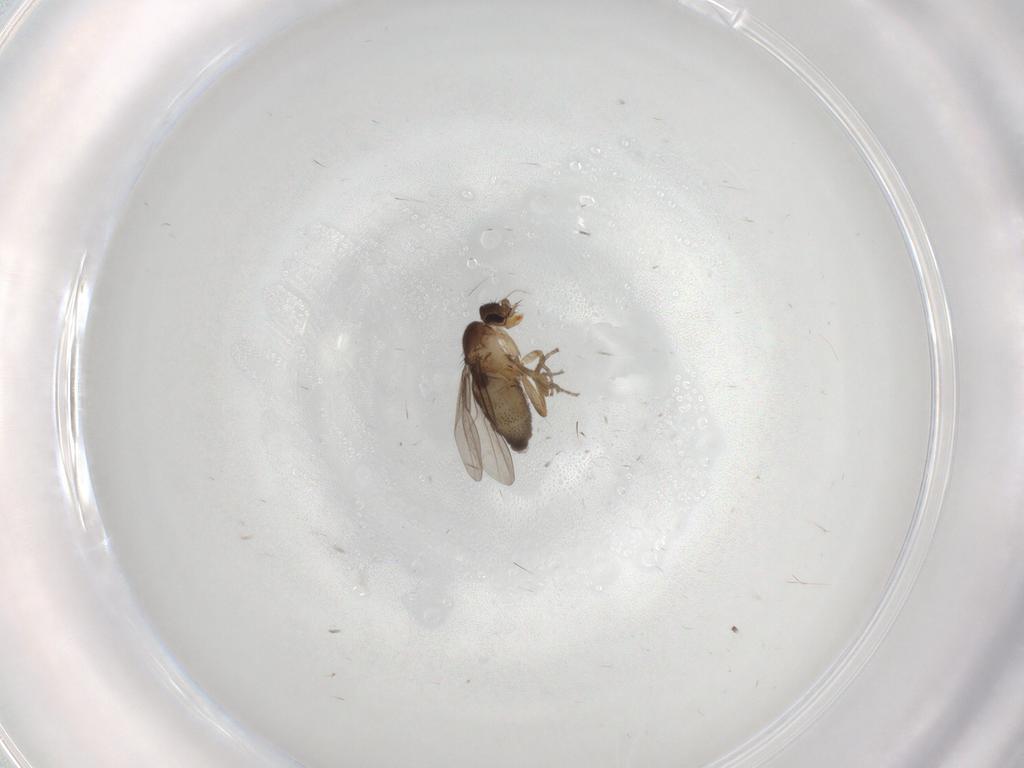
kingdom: Animalia
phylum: Arthropoda
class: Insecta
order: Diptera
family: Phoridae
